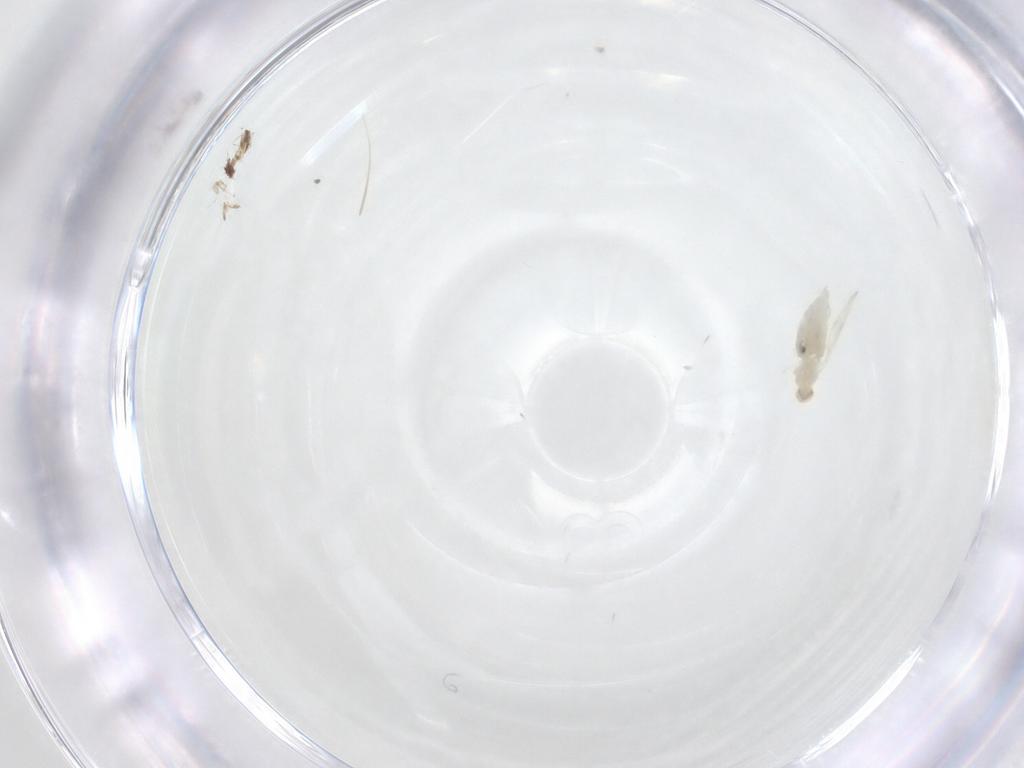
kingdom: Animalia
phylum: Arthropoda
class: Insecta
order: Diptera
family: Cecidomyiidae
